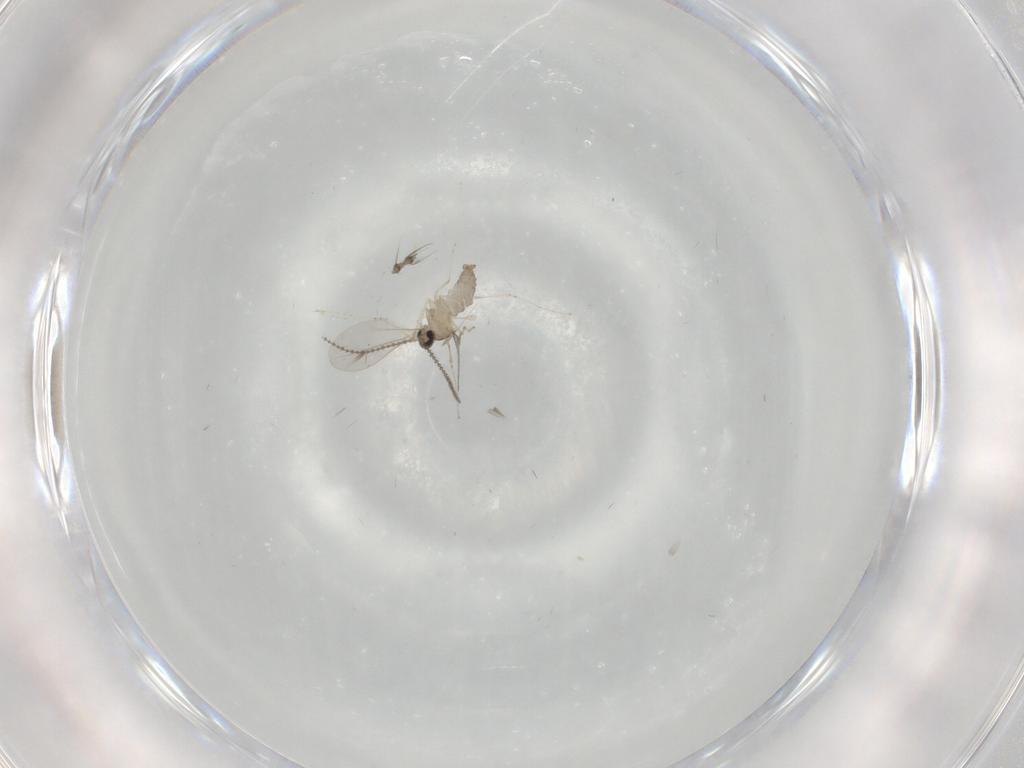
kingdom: Animalia
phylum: Arthropoda
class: Insecta
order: Diptera
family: Cecidomyiidae
